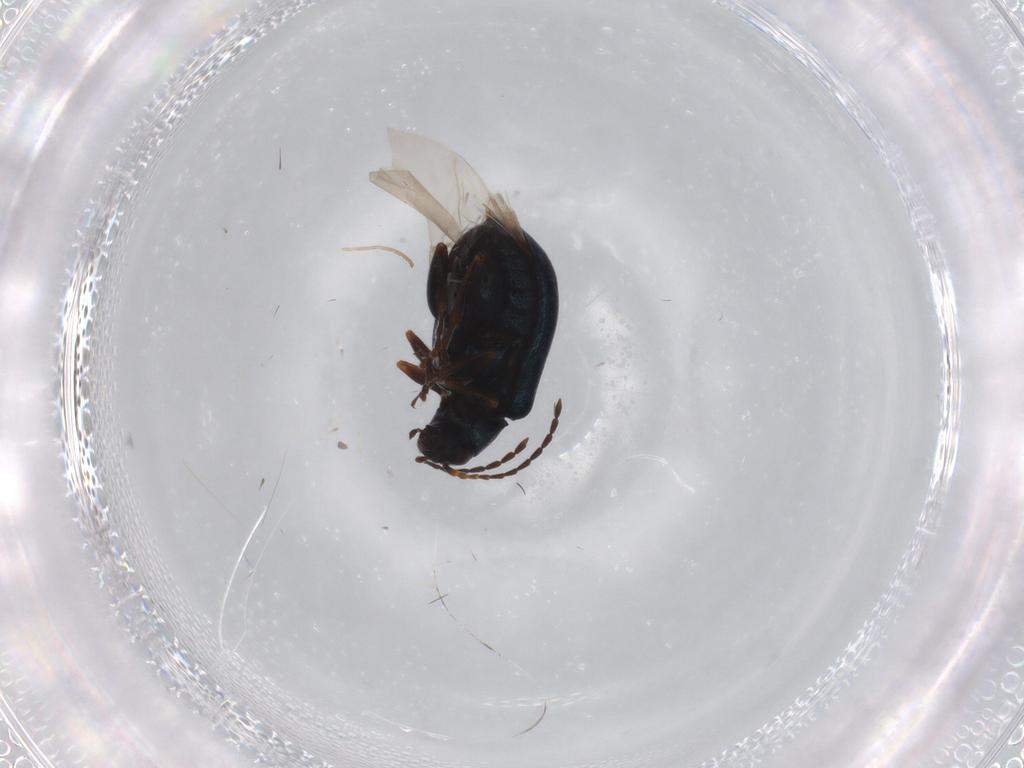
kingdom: Animalia
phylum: Arthropoda
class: Insecta
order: Coleoptera
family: Chrysomelidae
